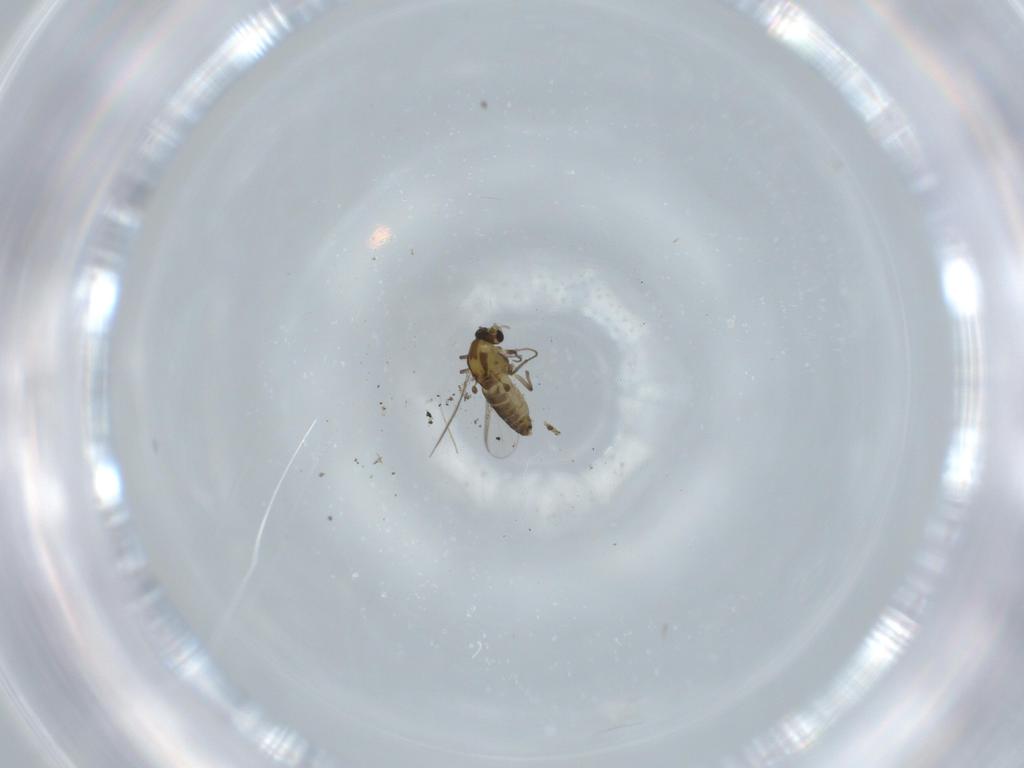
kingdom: Animalia
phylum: Arthropoda
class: Insecta
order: Diptera
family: Chironomidae
